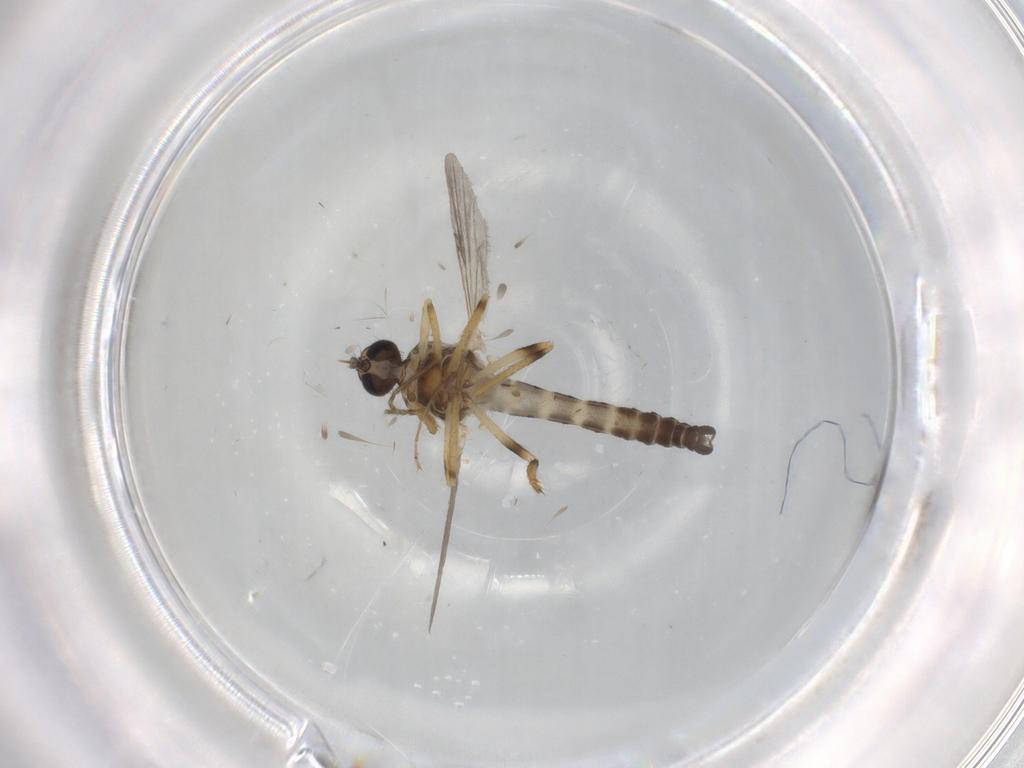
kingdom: Animalia
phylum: Arthropoda
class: Insecta
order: Diptera
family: Ceratopogonidae
